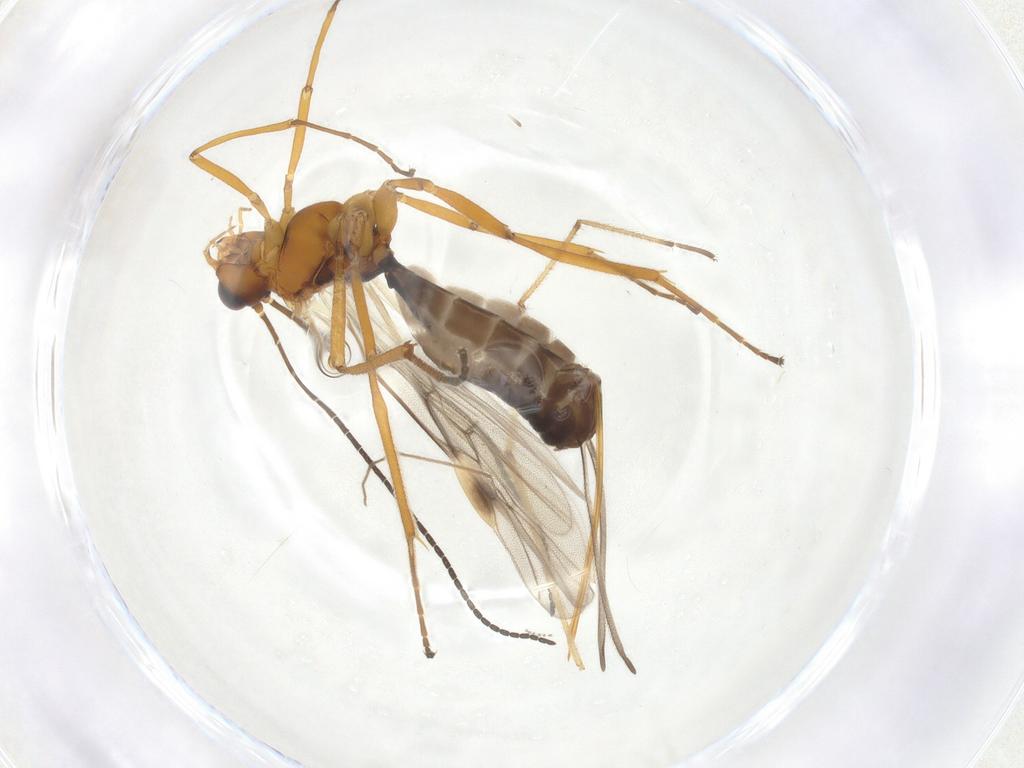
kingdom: Animalia
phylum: Arthropoda
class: Insecta
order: Hymenoptera
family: Braconidae
